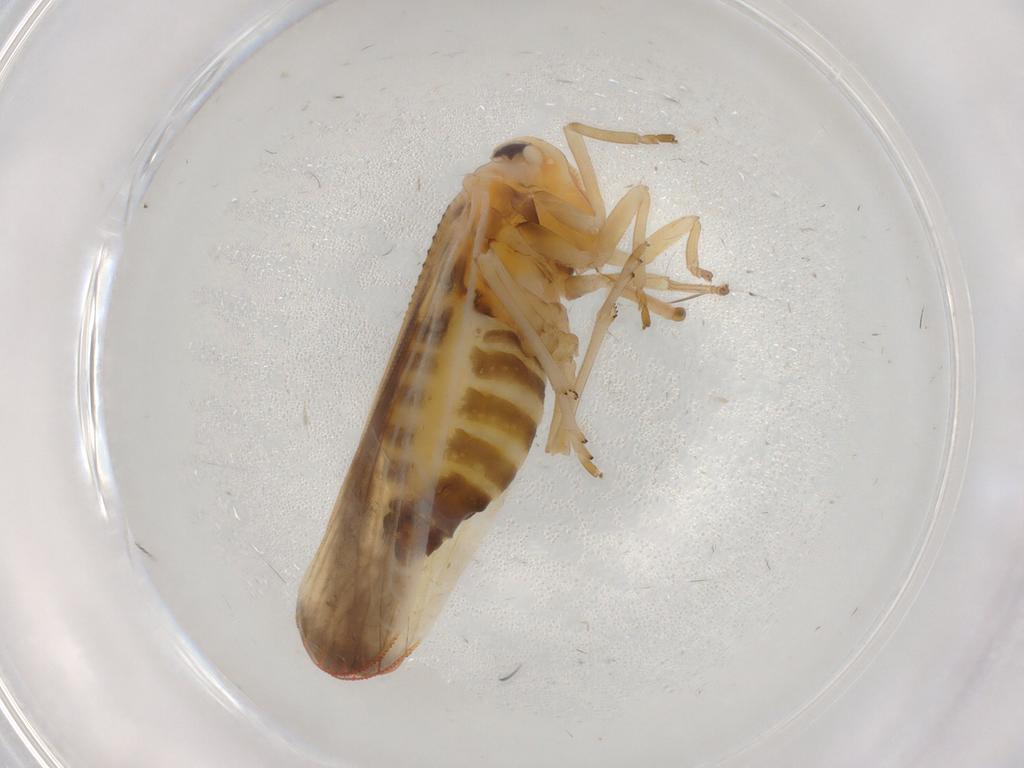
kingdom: Animalia
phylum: Arthropoda
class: Insecta
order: Hemiptera
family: Derbidae
